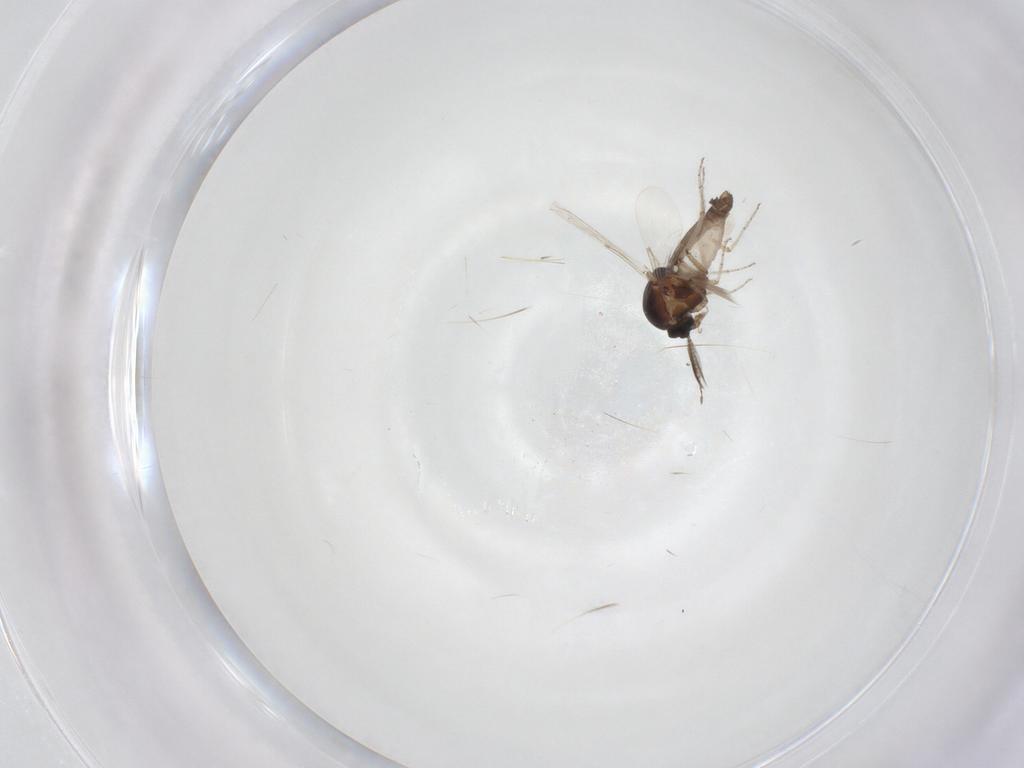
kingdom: Animalia
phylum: Arthropoda
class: Insecta
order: Diptera
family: Ceratopogonidae
